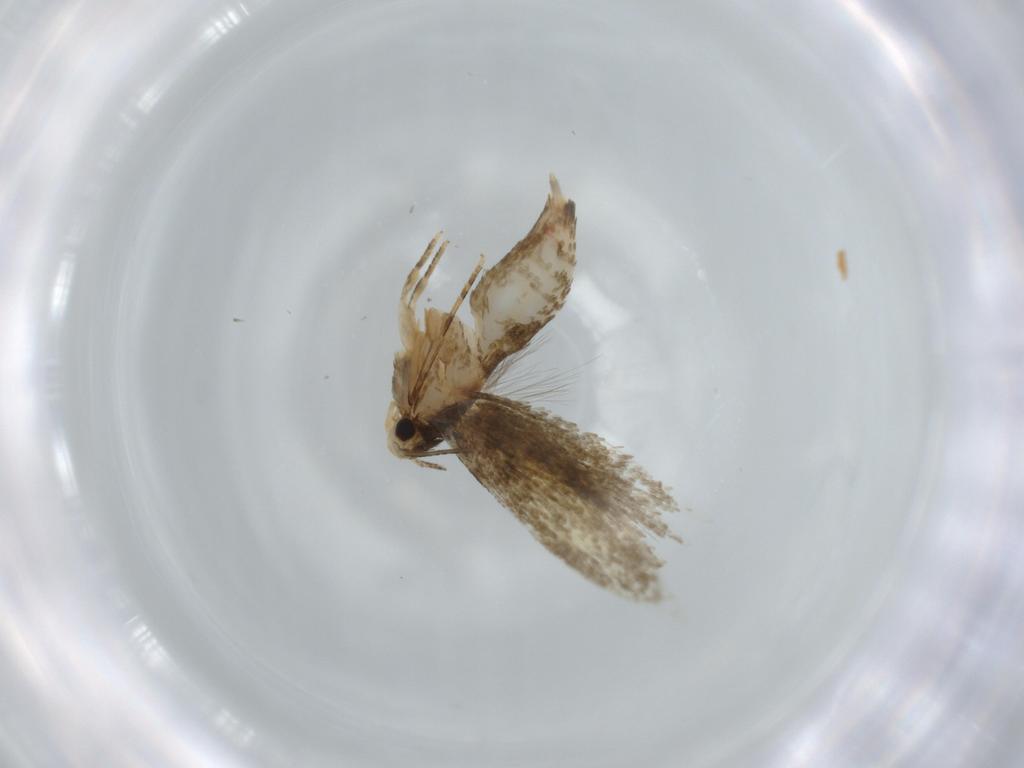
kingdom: Animalia
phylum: Arthropoda
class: Insecta
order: Lepidoptera
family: Tineidae
